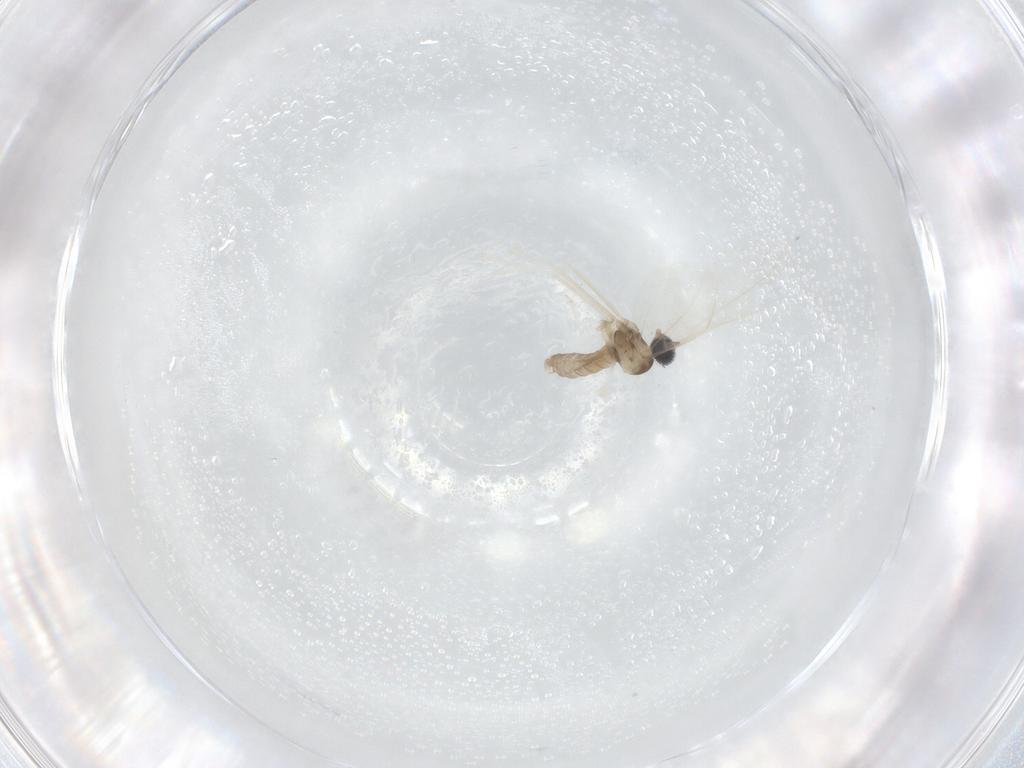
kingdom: Animalia
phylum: Arthropoda
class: Insecta
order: Diptera
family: Cecidomyiidae
